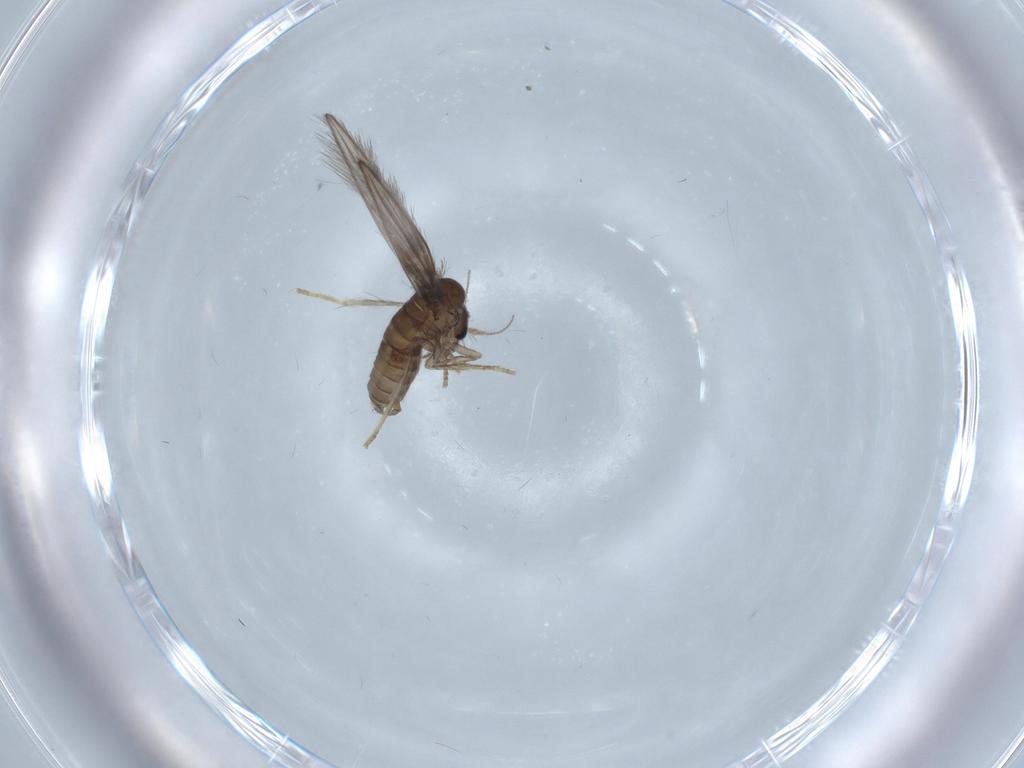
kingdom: Animalia
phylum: Arthropoda
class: Insecta
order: Diptera
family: Psychodidae
